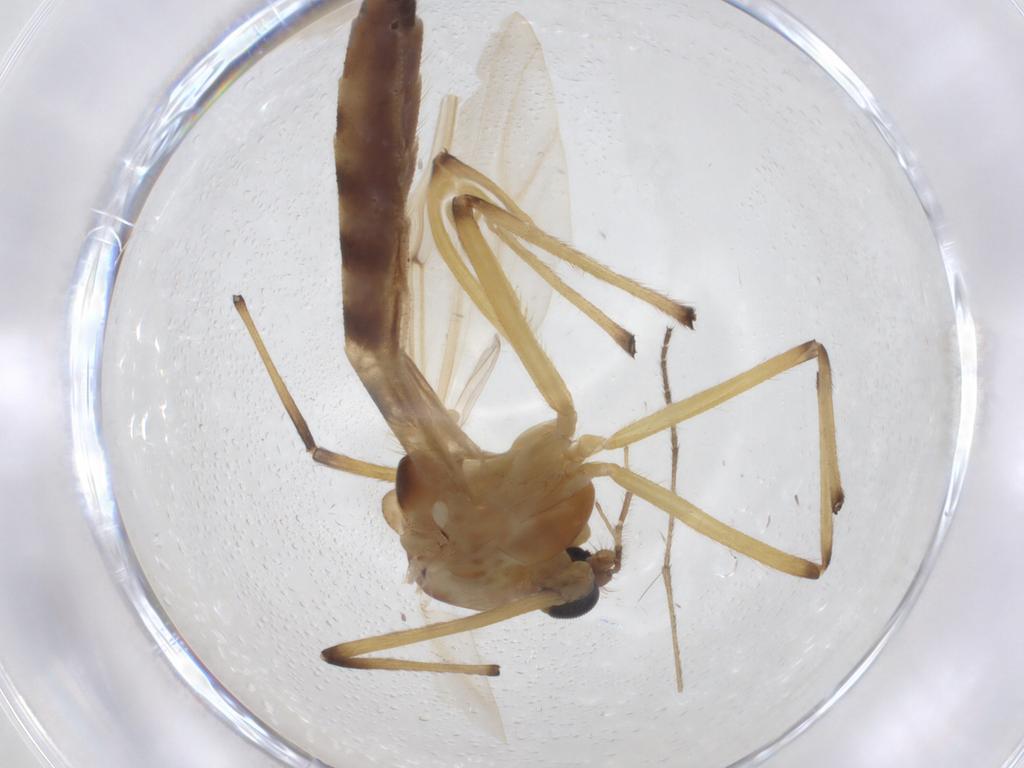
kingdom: Animalia
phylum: Arthropoda
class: Insecta
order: Diptera
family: Chironomidae
